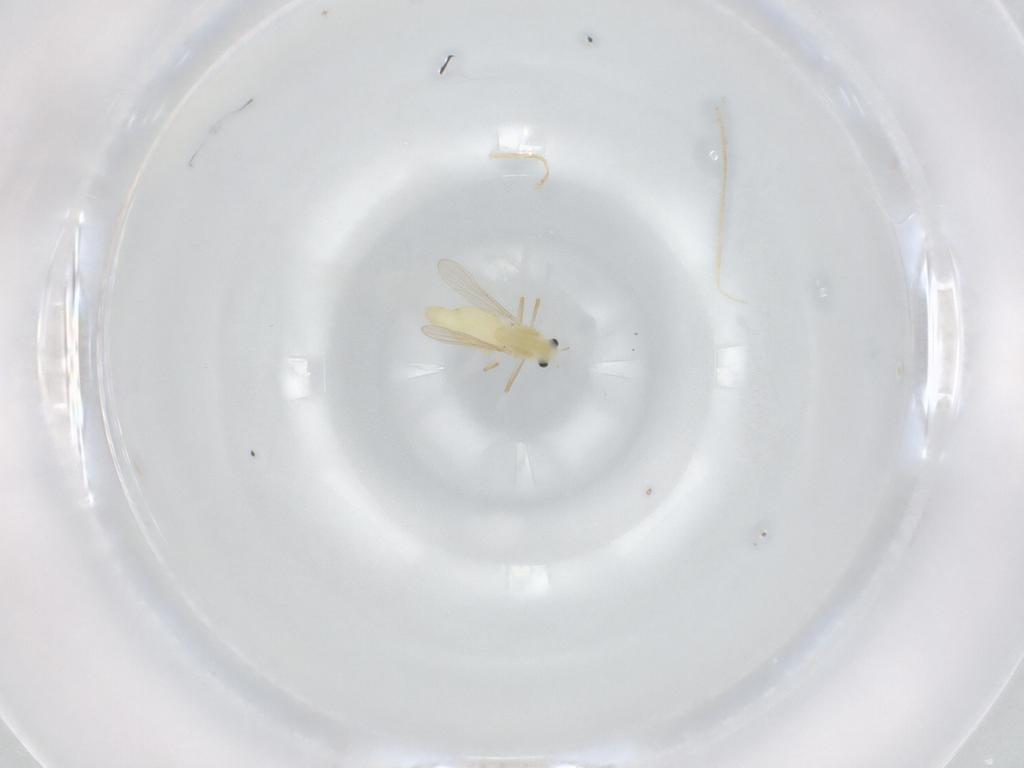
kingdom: Animalia
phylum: Arthropoda
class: Insecta
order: Diptera
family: Chironomidae
